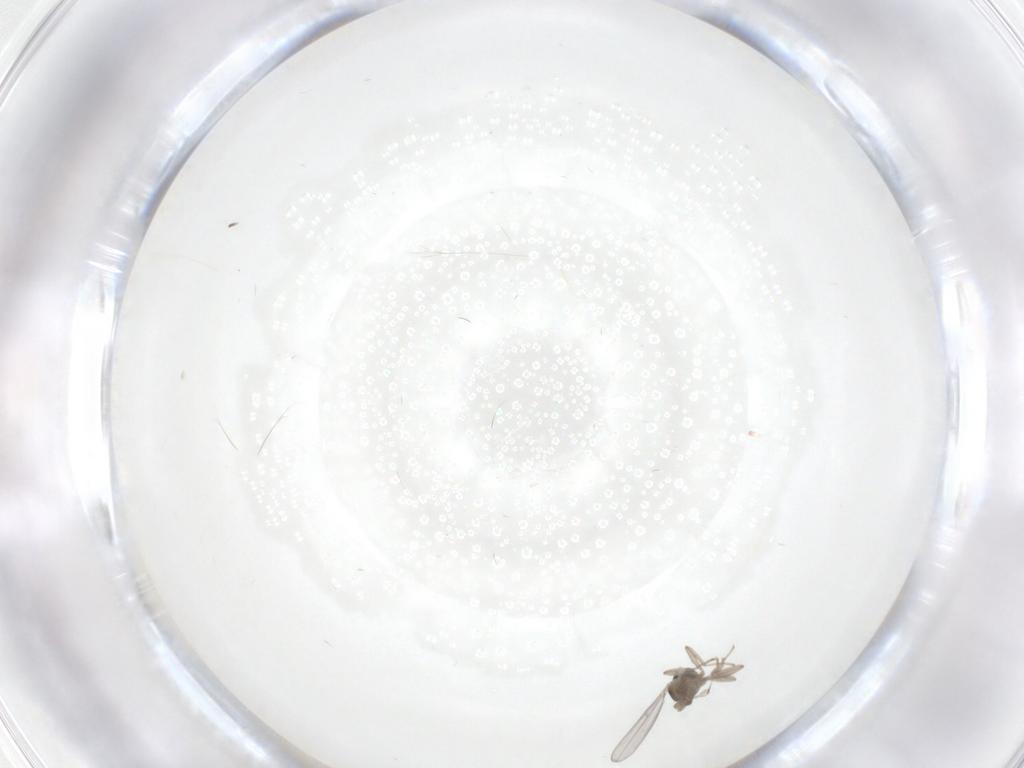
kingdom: Animalia
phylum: Arthropoda
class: Insecta
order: Diptera
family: Cecidomyiidae
